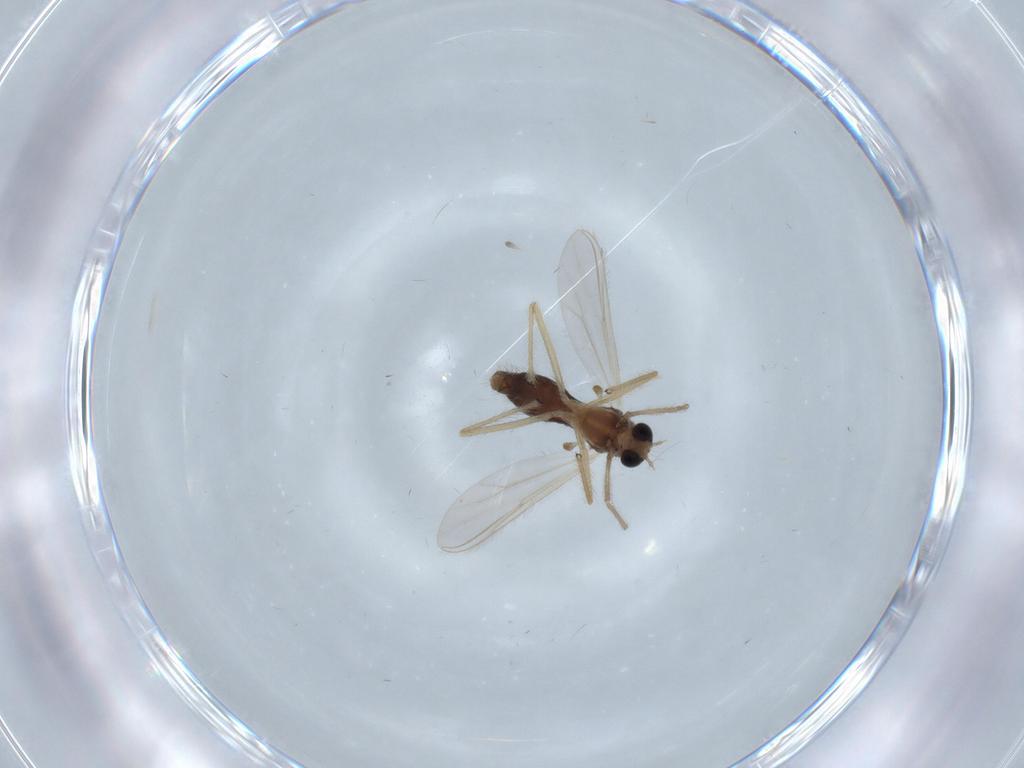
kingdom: Animalia
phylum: Arthropoda
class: Insecta
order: Diptera
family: Chironomidae
